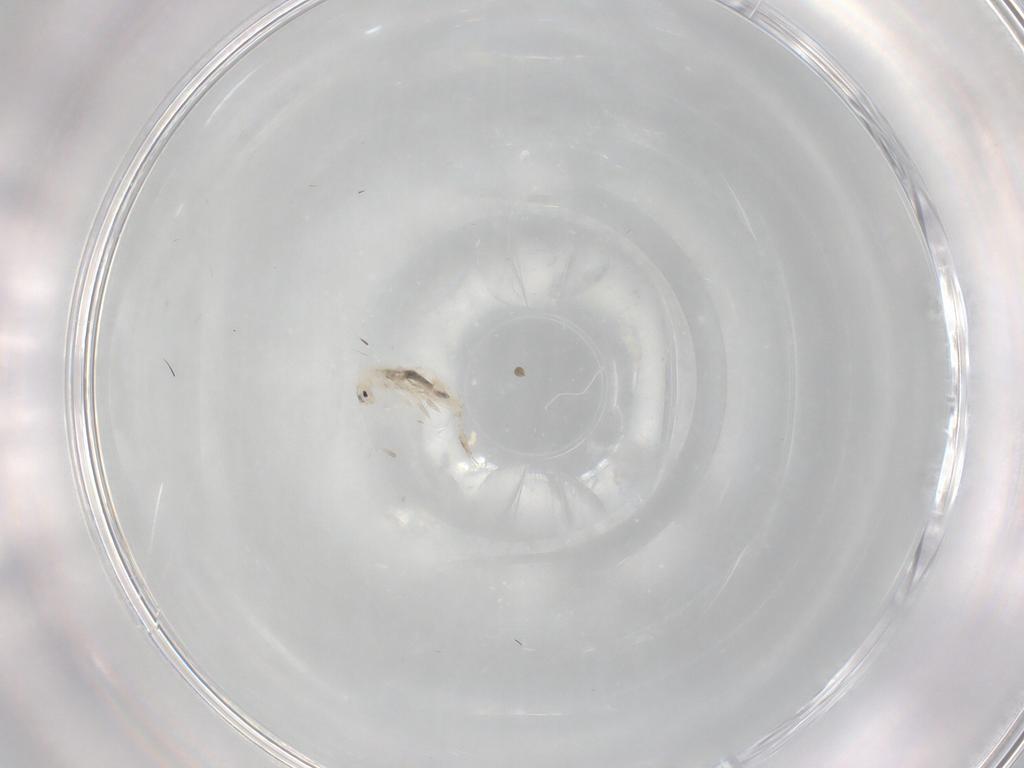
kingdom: Animalia
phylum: Arthropoda
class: Collembola
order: Entomobryomorpha
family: Entomobryidae
